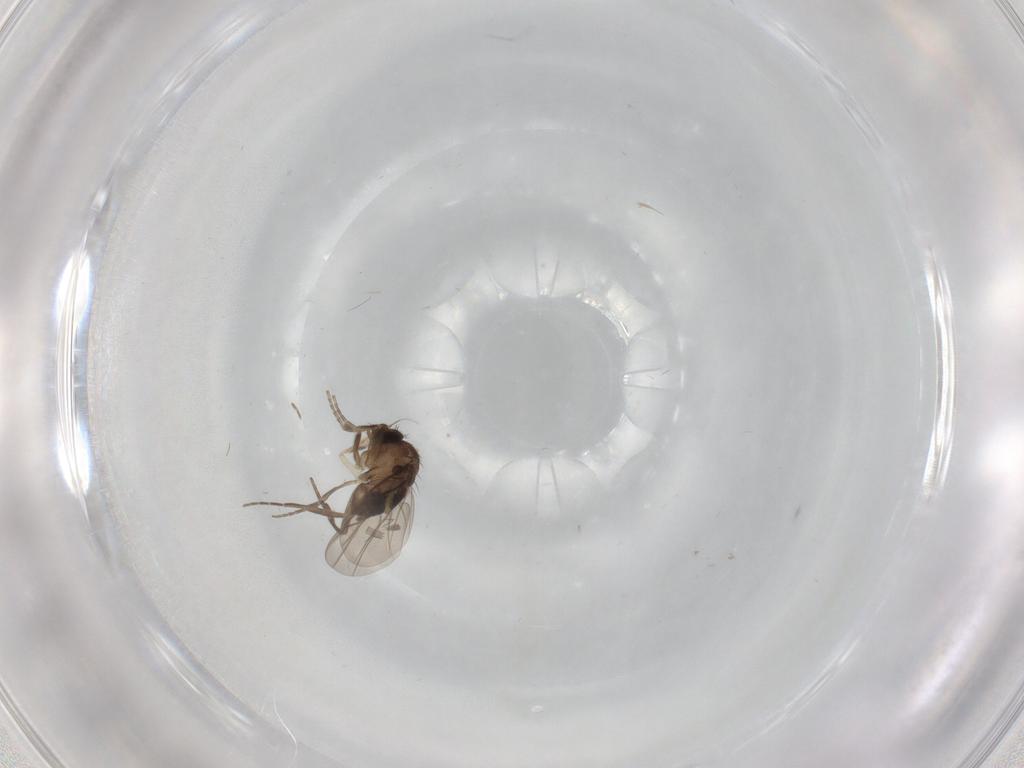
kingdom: Animalia
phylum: Arthropoda
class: Insecta
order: Diptera
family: Psychodidae
